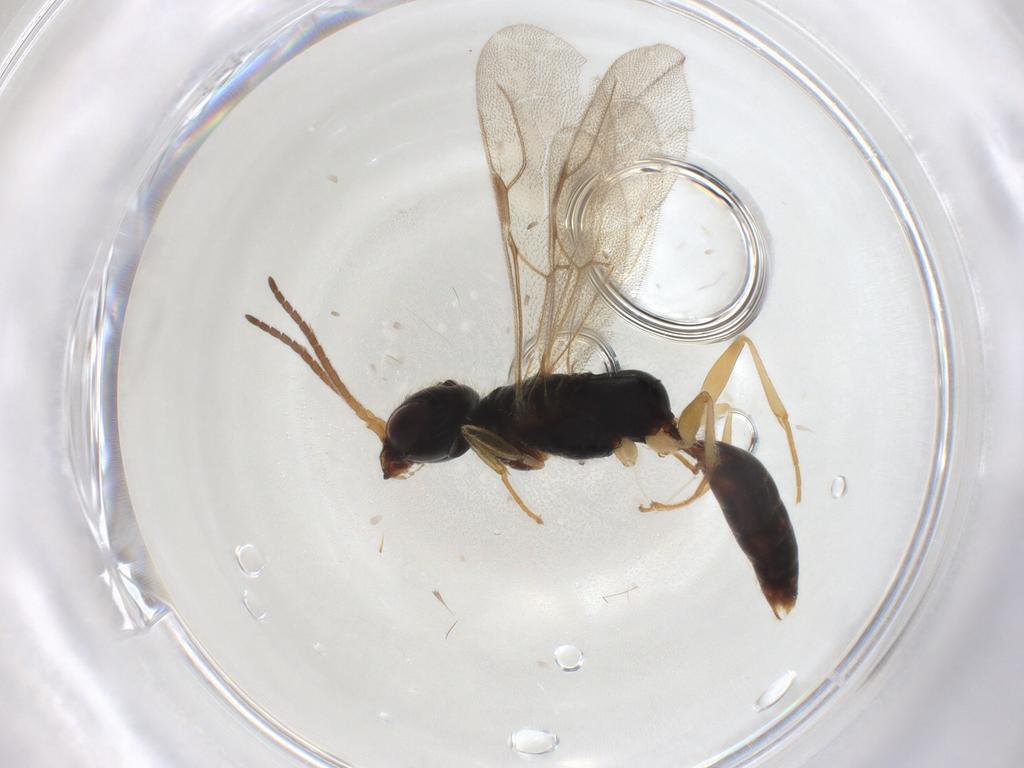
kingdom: Animalia
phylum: Arthropoda
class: Insecta
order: Hymenoptera
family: Bethylidae
